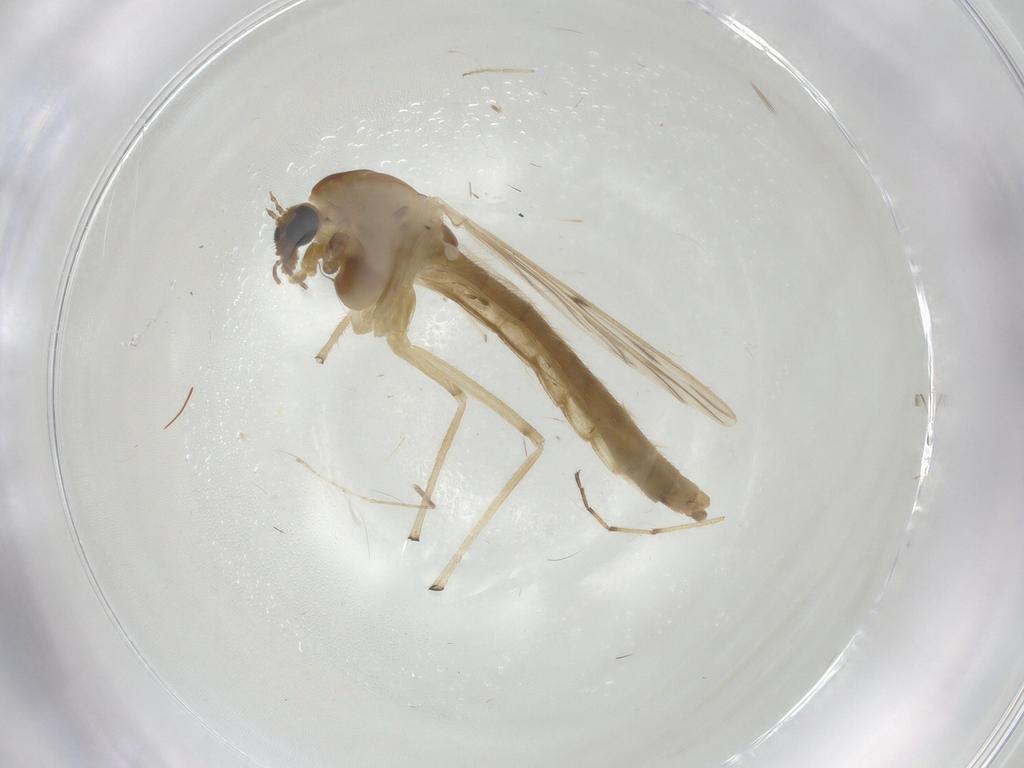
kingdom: Animalia
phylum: Arthropoda
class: Insecta
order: Diptera
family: Chironomidae
